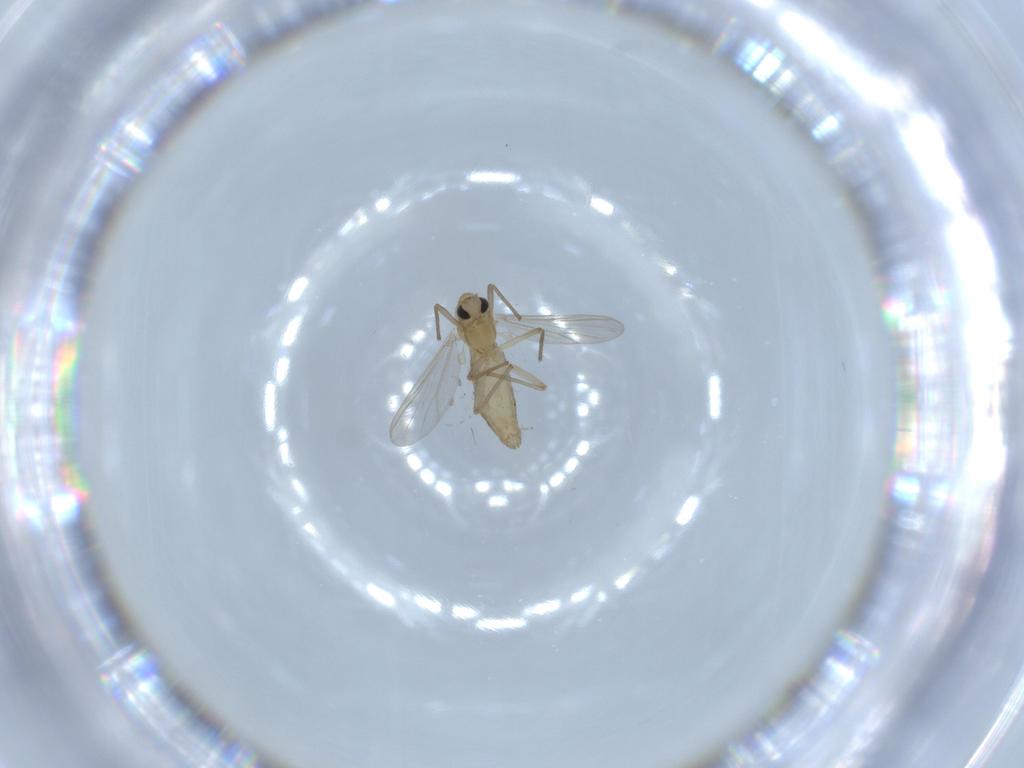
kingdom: Animalia
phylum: Arthropoda
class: Insecta
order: Diptera
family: Chironomidae
